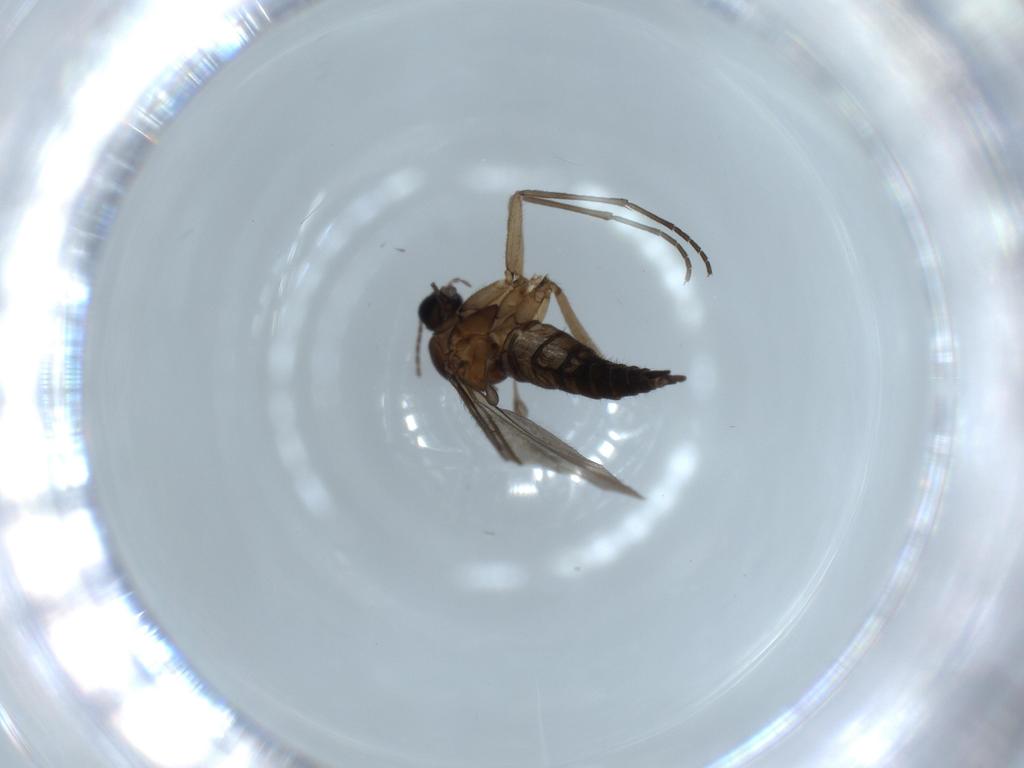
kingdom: Animalia
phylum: Arthropoda
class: Insecta
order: Diptera
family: Sciaridae
